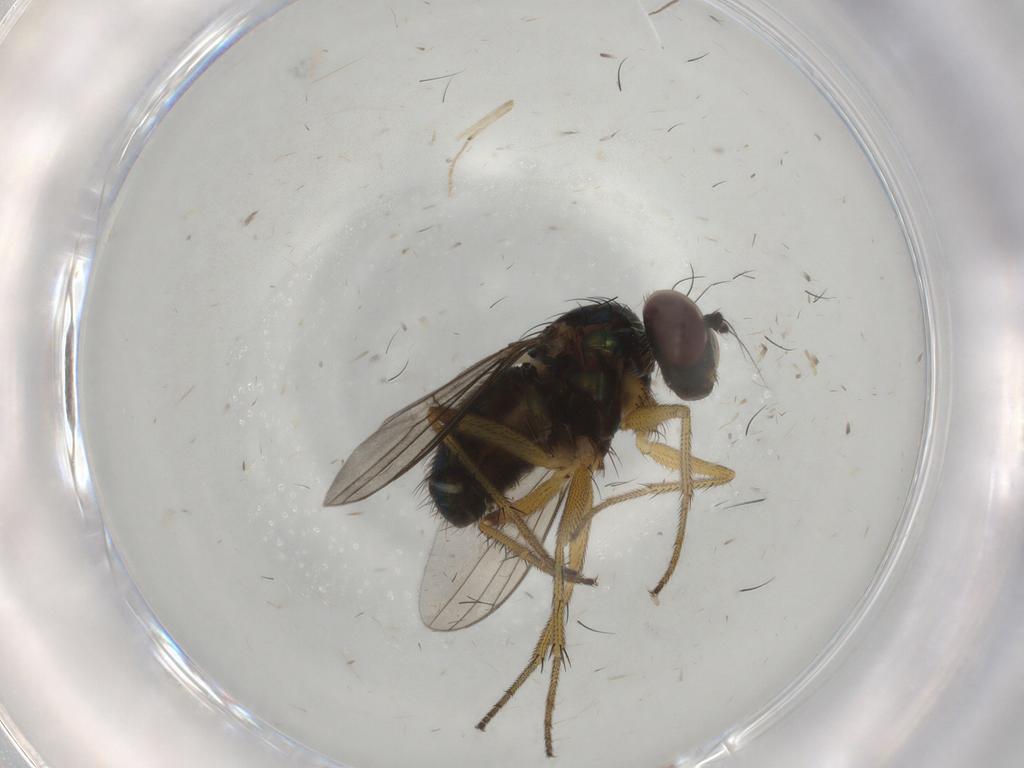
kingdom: Animalia
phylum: Arthropoda
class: Insecta
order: Diptera
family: Dolichopodidae
